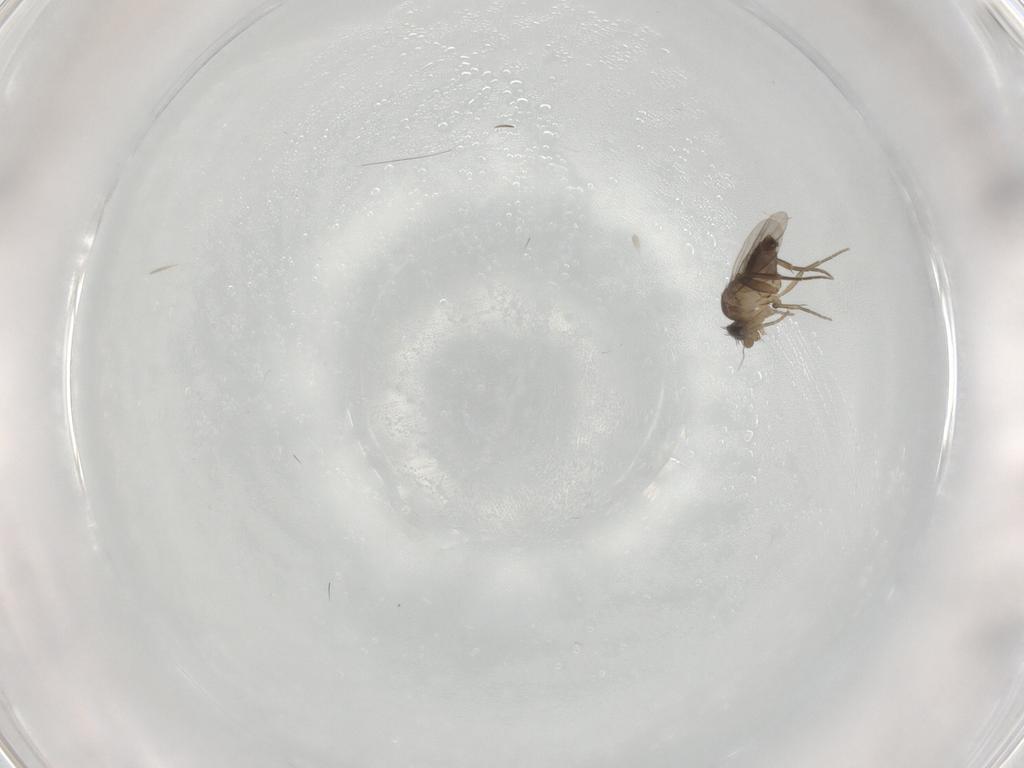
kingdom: Animalia
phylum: Arthropoda
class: Insecta
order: Diptera
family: Phoridae
